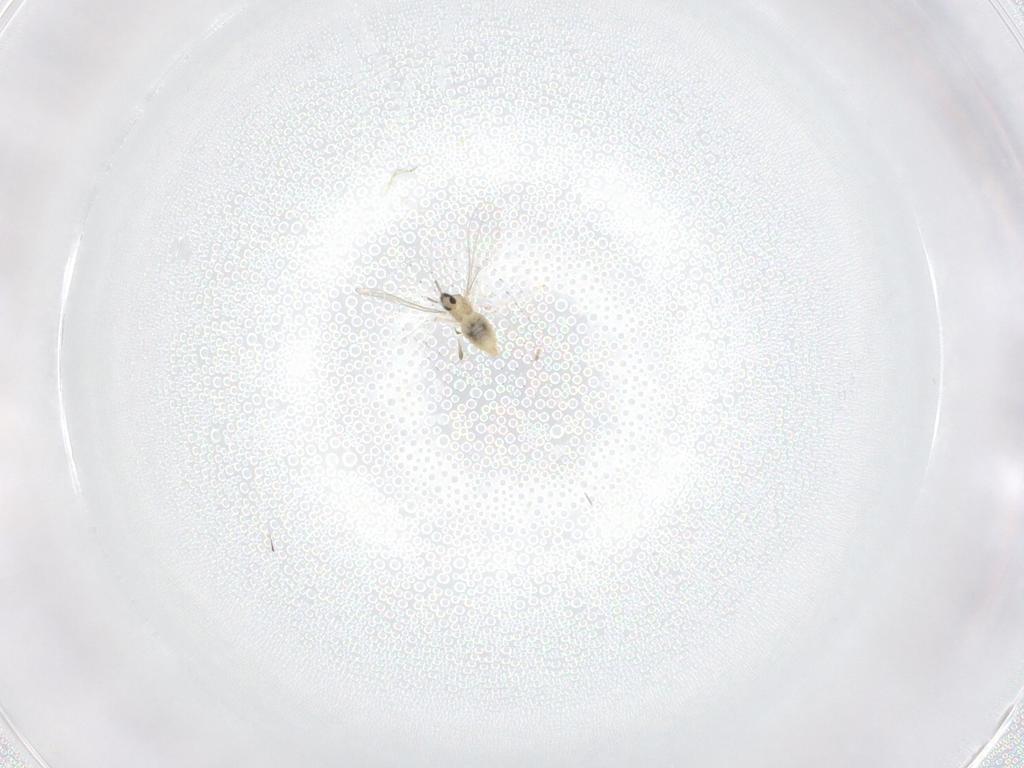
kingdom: Animalia
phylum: Arthropoda
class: Insecta
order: Diptera
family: Cecidomyiidae
